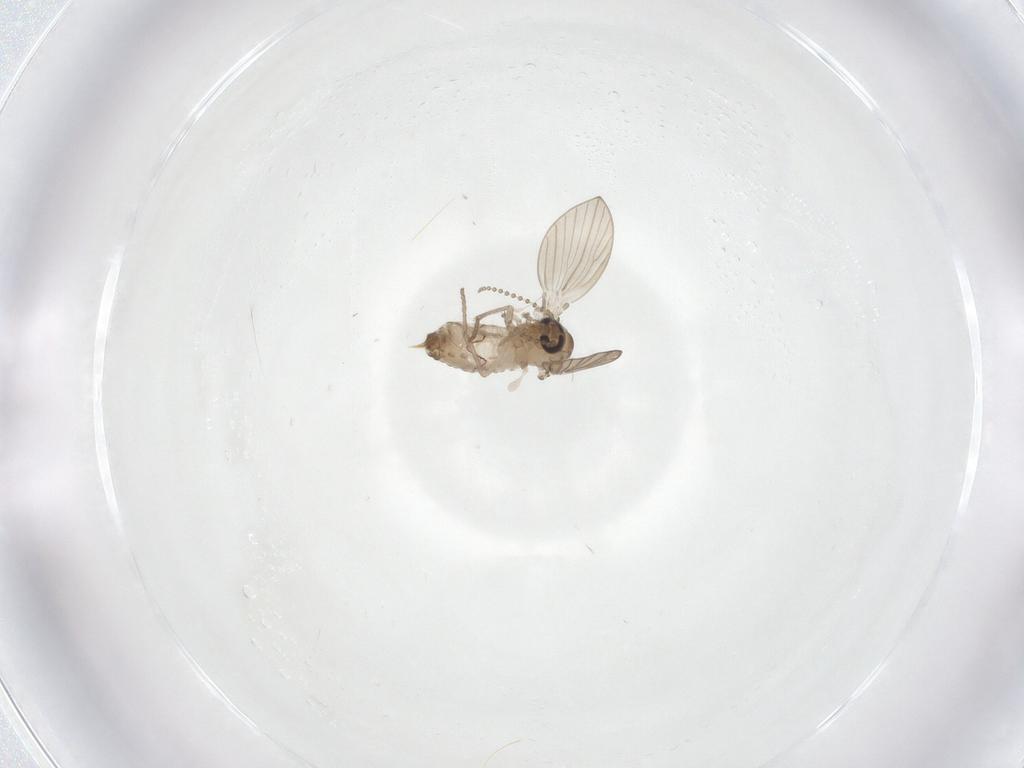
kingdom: Animalia
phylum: Arthropoda
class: Insecta
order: Diptera
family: Psychodidae
